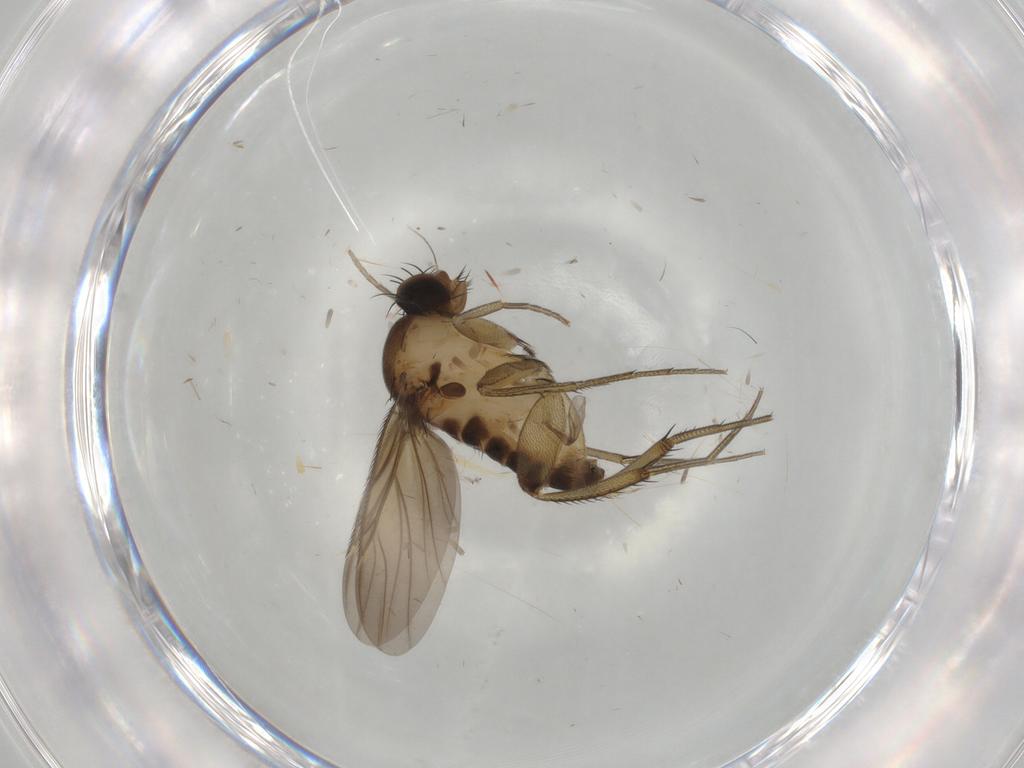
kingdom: Animalia
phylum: Arthropoda
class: Insecta
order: Diptera
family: Phoridae
